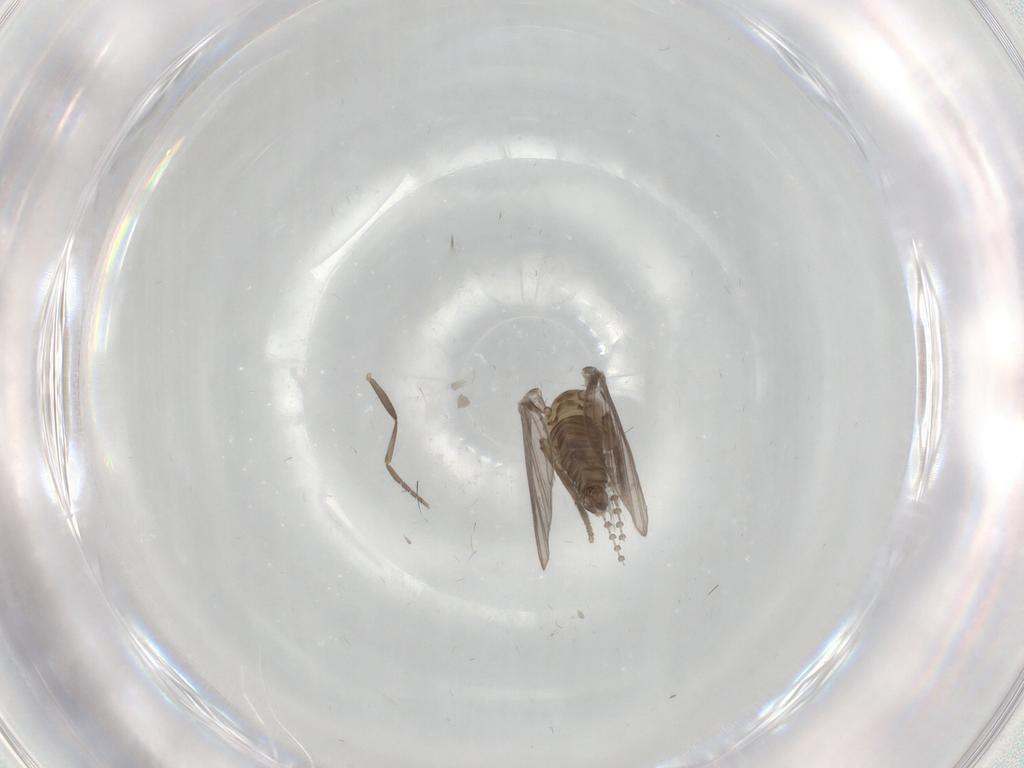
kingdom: Animalia
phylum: Arthropoda
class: Insecta
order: Diptera
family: Psychodidae
